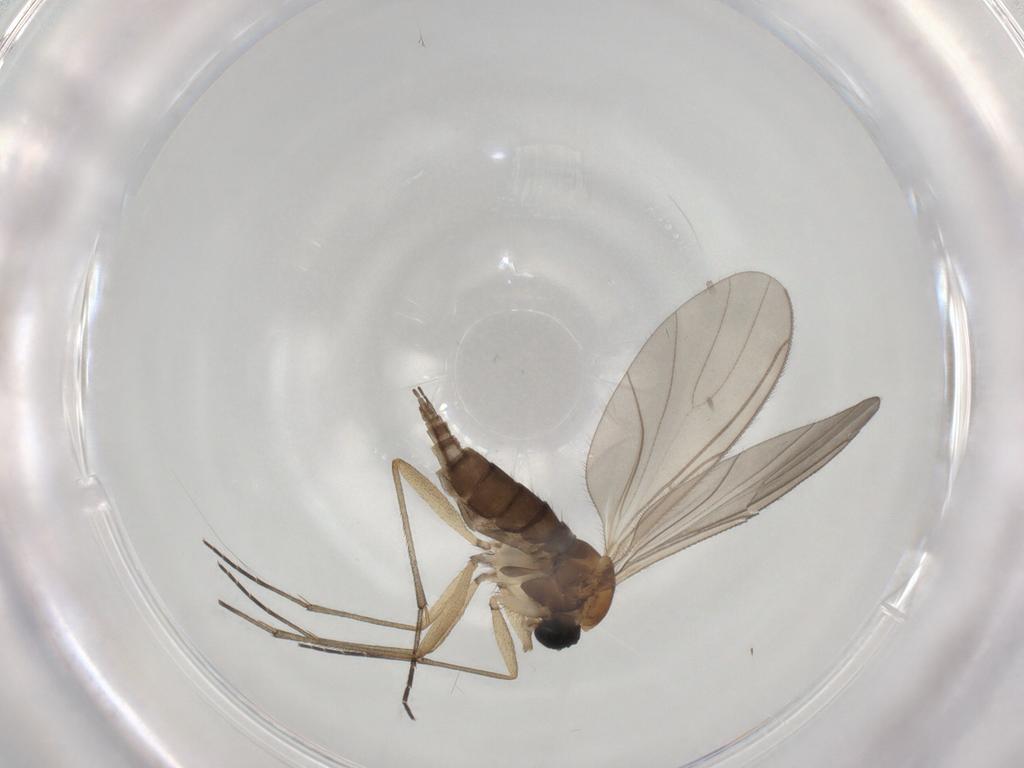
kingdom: Animalia
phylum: Arthropoda
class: Insecta
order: Diptera
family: Sciaridae
